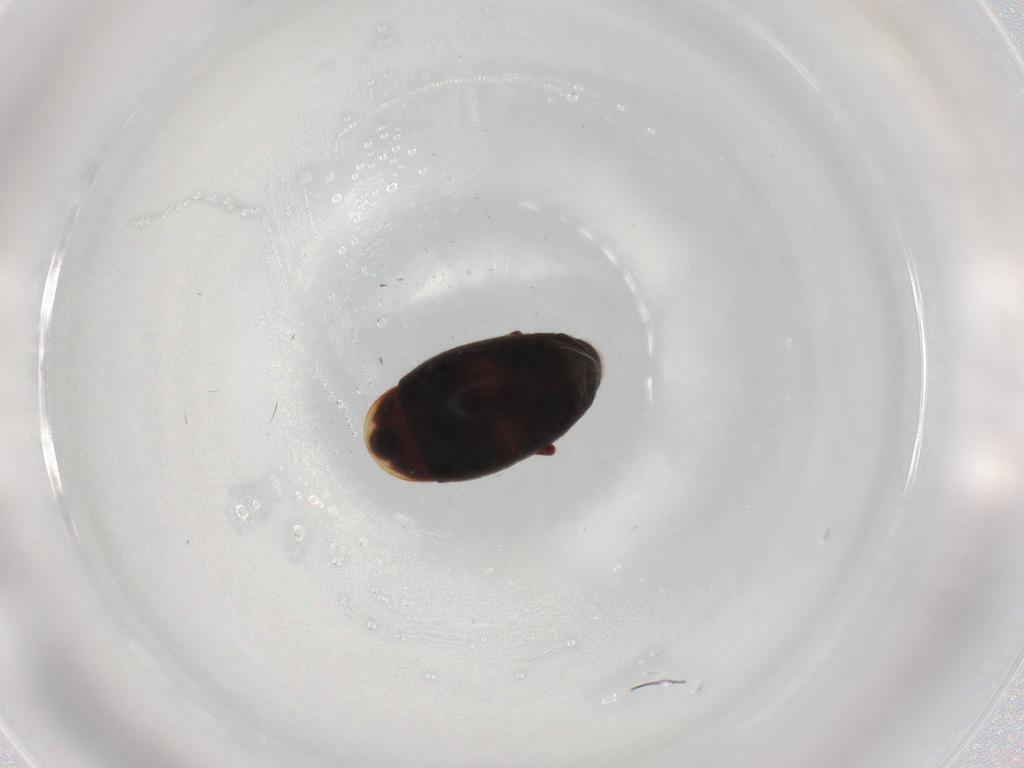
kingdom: Animalia
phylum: Arthropoda
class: Insecta
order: Coleoptera
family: Corylophidae
